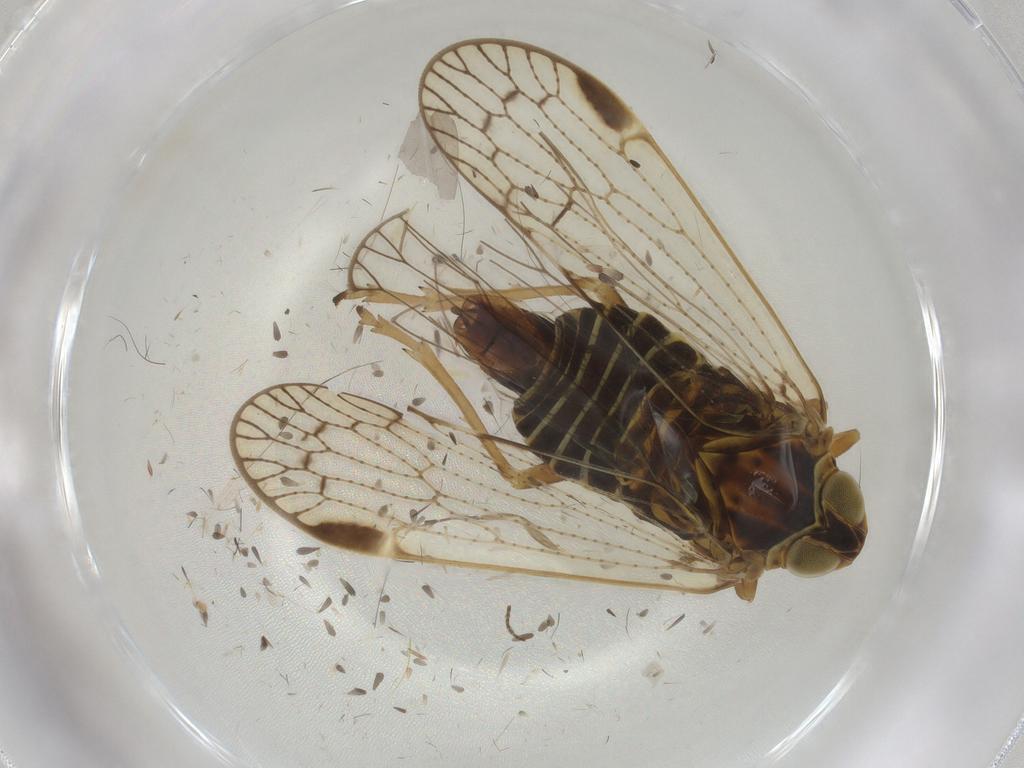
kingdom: Animalia
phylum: Arthropoda
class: Insecta
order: Hemiptera
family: Cixiidae
